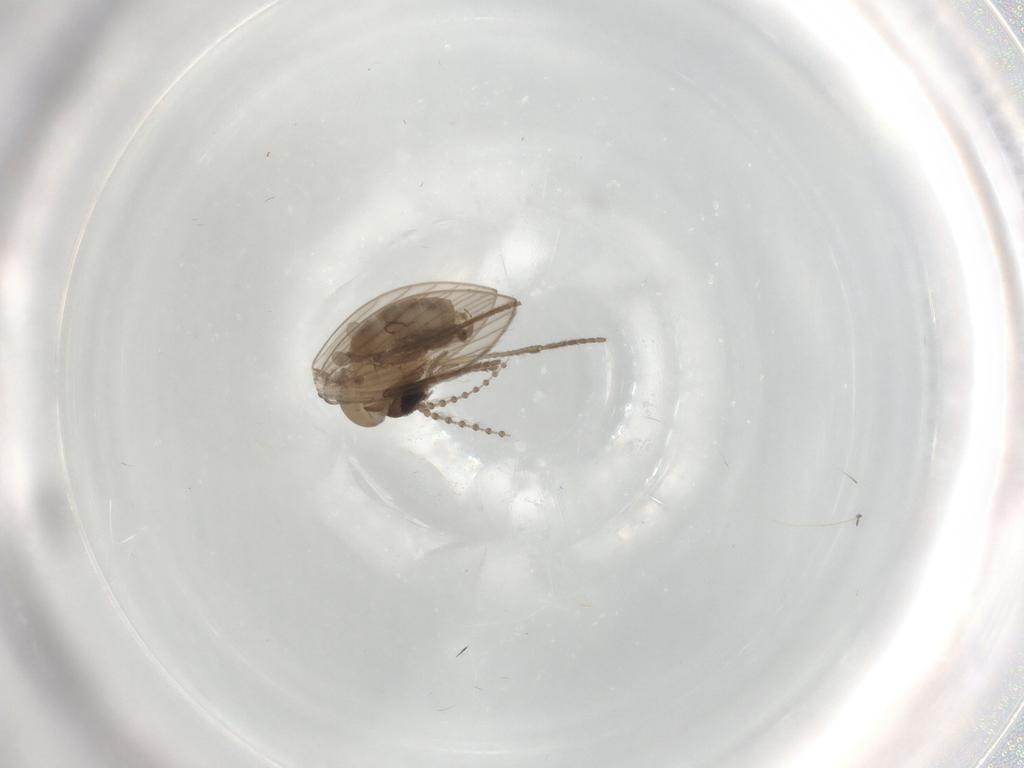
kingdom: Animalia
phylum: Arthropoda
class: Insecta
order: Diptera
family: Psychodidae
